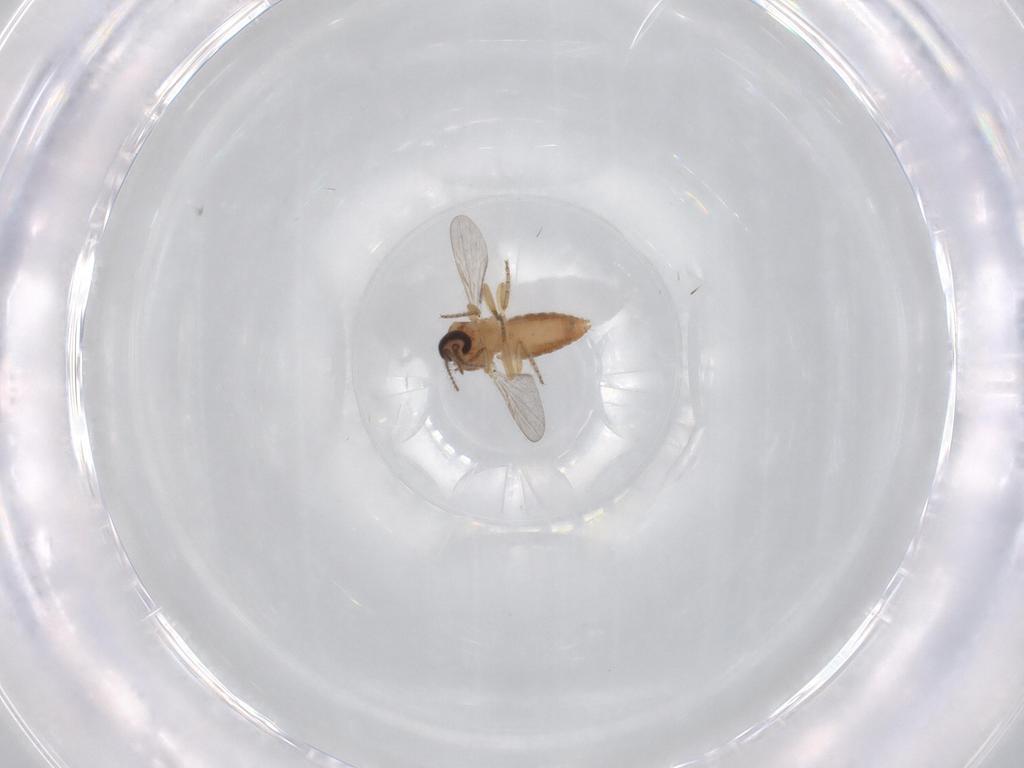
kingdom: Animalia
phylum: Arthropoda
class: Insecta
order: Diptera
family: Ceratopogonidae
